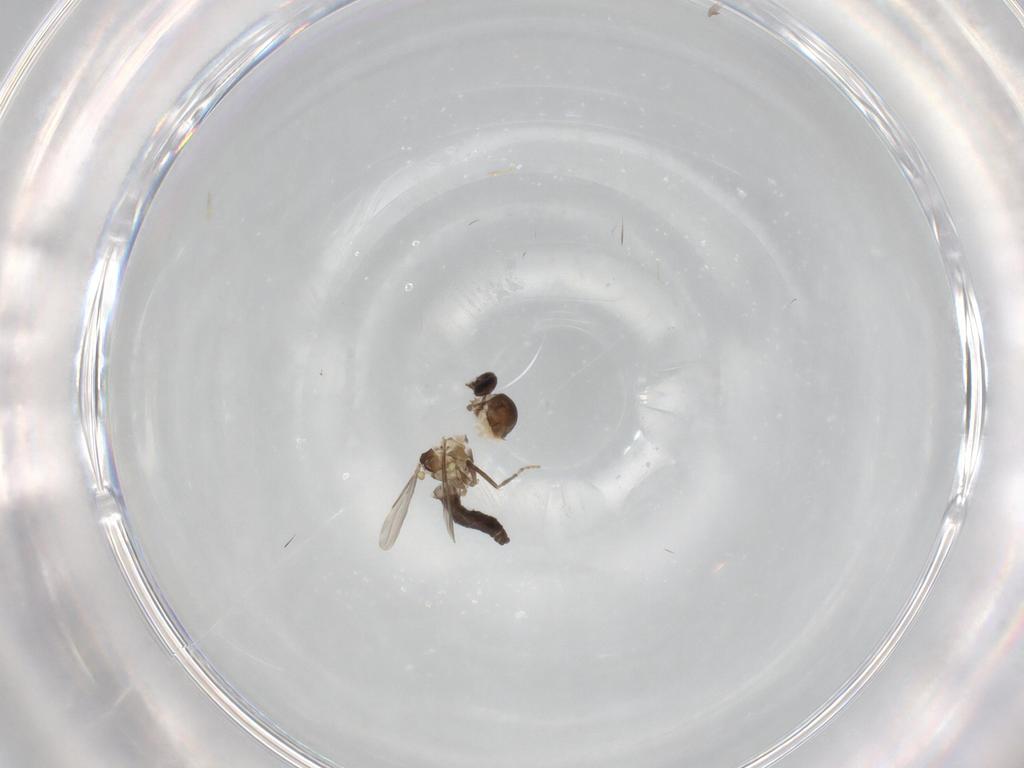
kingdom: Animalia
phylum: Arthropoda
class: Insecta
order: Diptera
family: Ceratopogonidae
